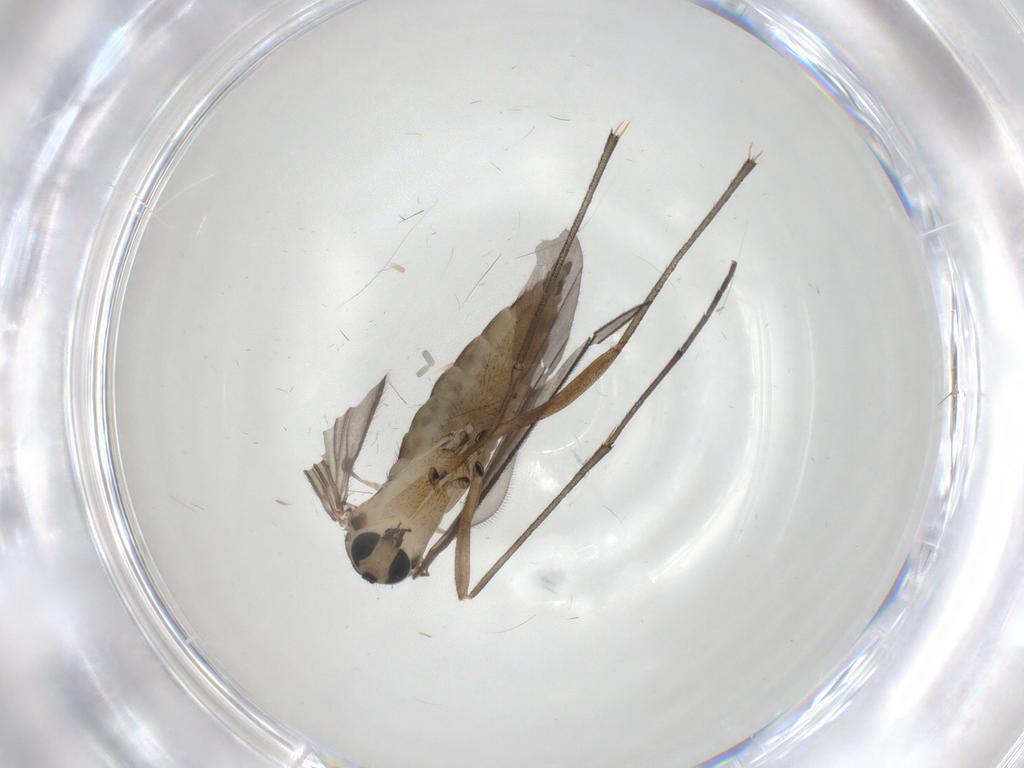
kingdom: Animalia
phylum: Arthropoda
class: Insecta
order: Diptera
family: Sciaridae
